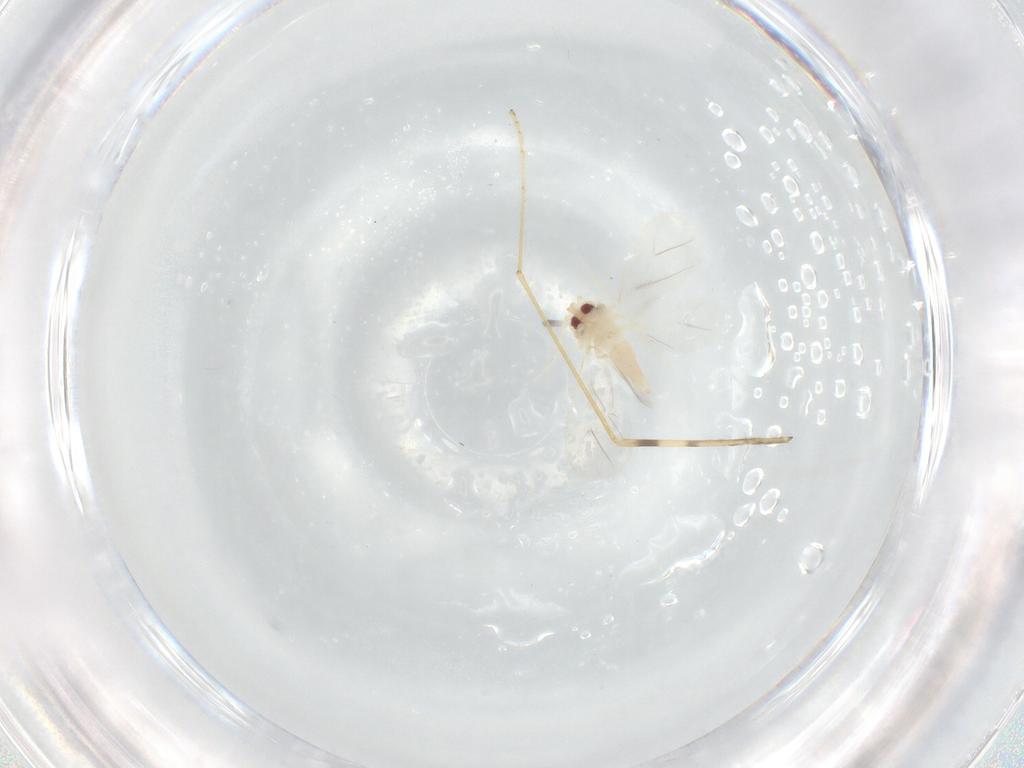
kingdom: Animalia
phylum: Arthropoda
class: Insecta
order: Hemiptera
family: Aleyrodidae
